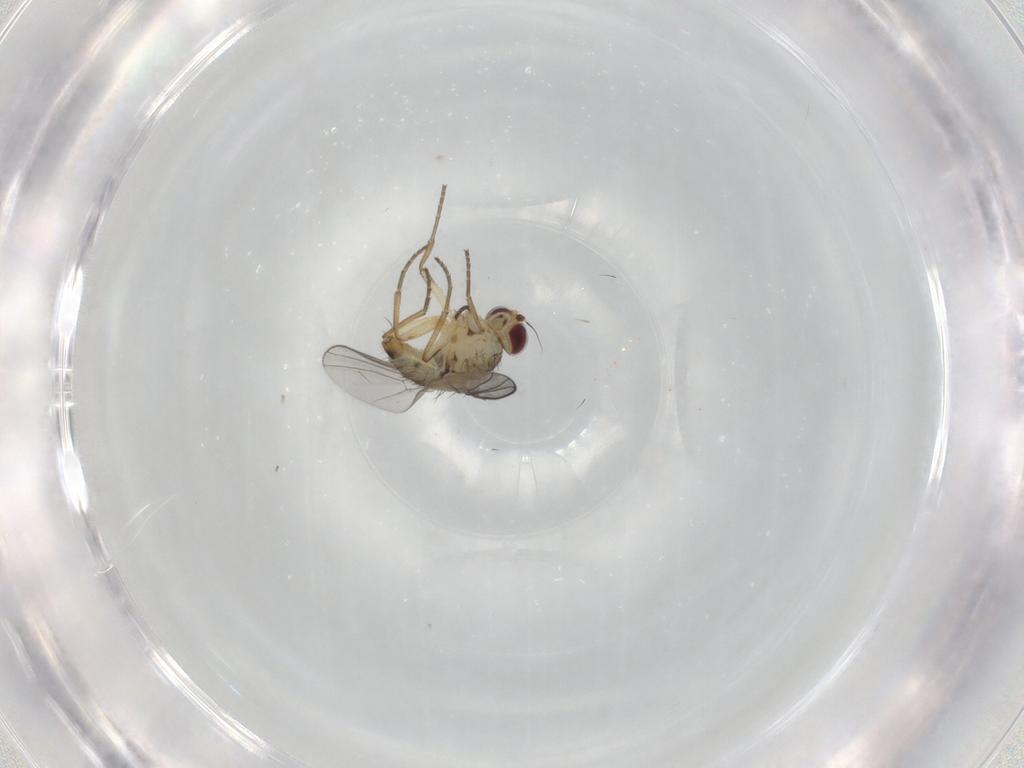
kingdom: Animalia
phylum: Arthropoda
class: Insecta
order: Diptera
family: Agromyzidae
